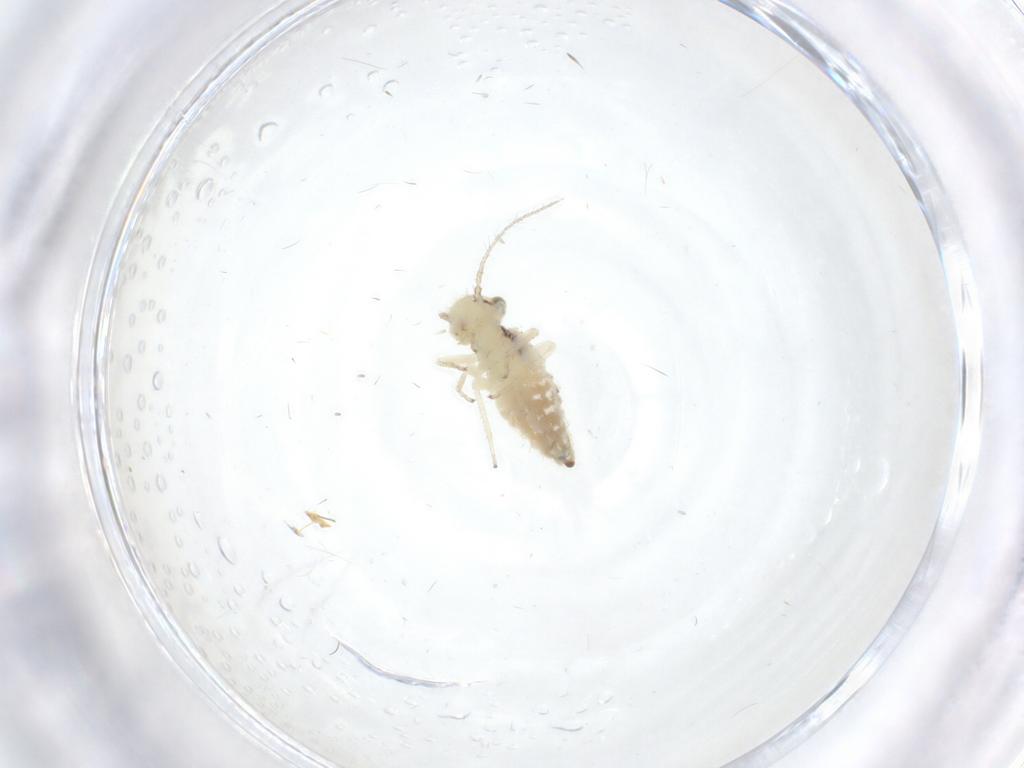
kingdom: Animalia
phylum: Arthropoda
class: Insecta
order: Psocodea
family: Pseudocaeciliidae
